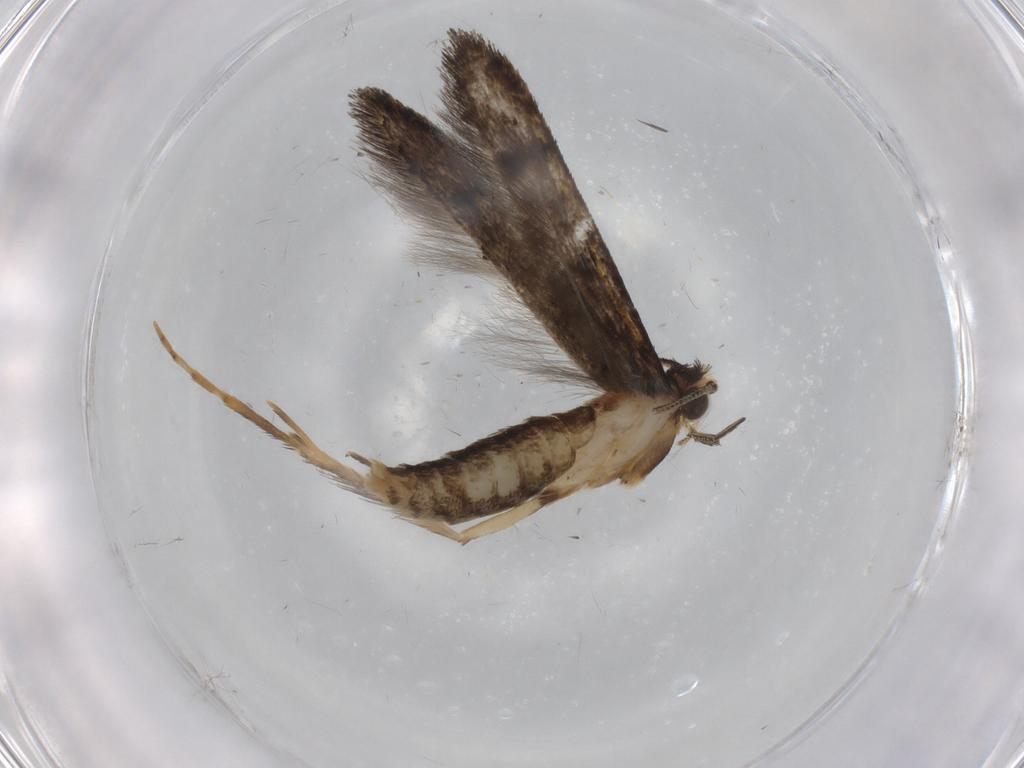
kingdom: Animalia
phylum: Arthropoda
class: Insecta
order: Lepidoptera
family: Tineidae
